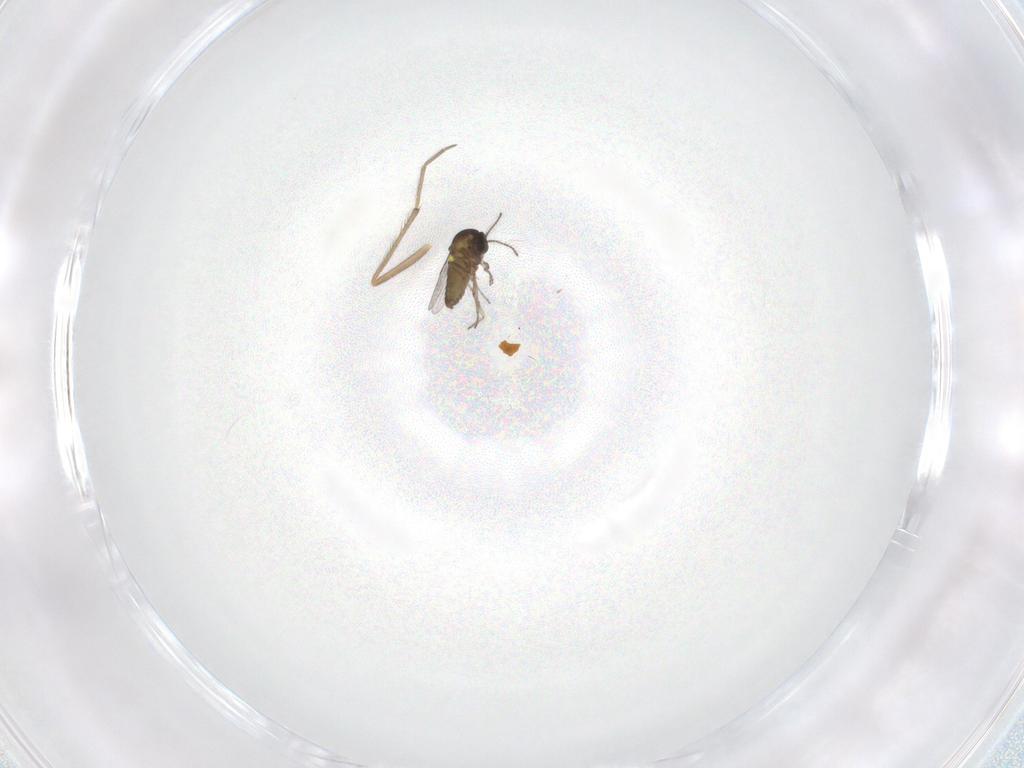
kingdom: Animalia
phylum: Arthropoda
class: Insecta
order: Diptera
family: Ceratopogonidae
